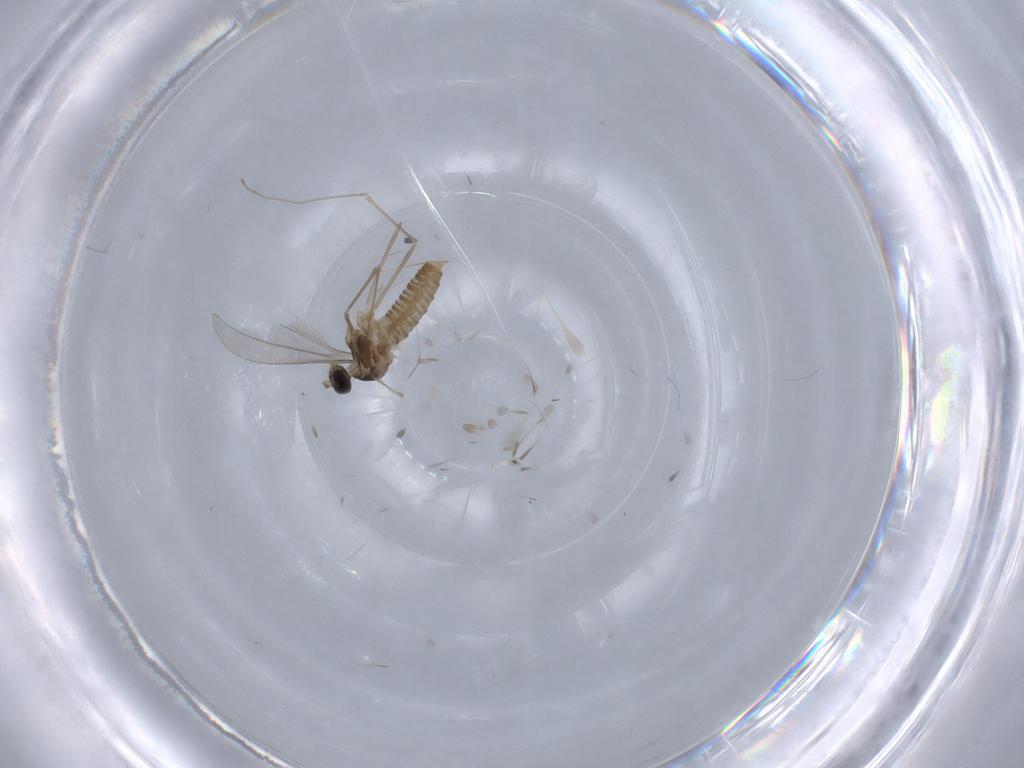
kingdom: Animalia
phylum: Arthropoda
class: Insecta
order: Diptera
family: Cecidomyiidae
